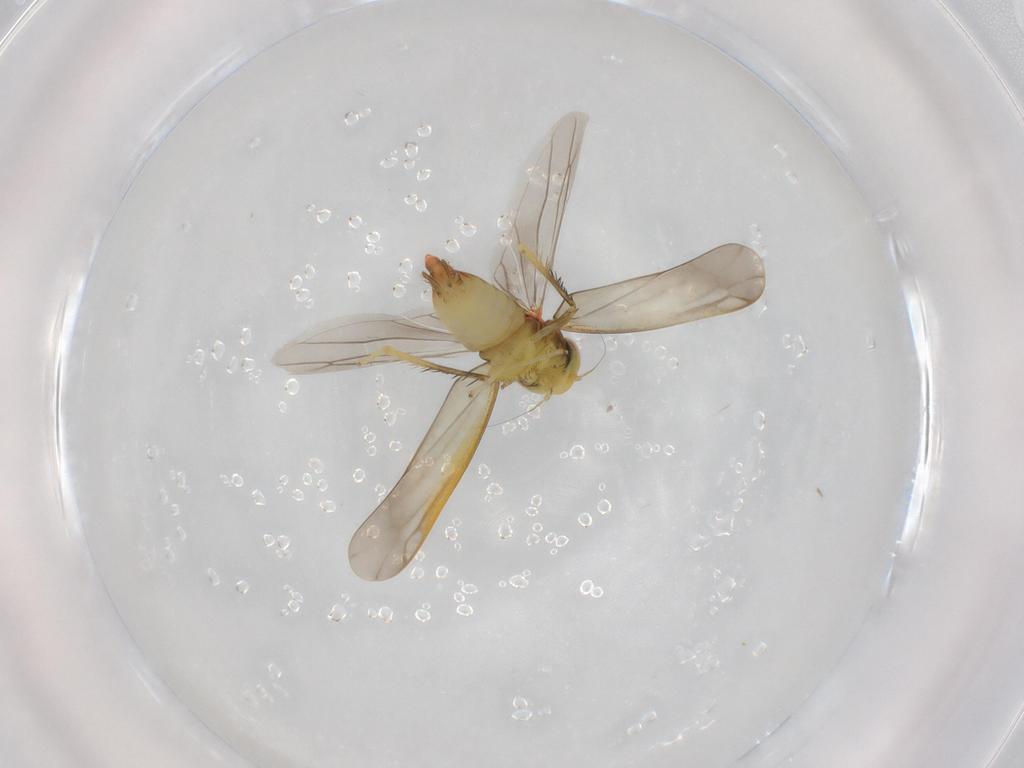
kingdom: Animalia
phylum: Arthropoda
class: Insecta
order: Hemiptera
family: Cicadellidae
